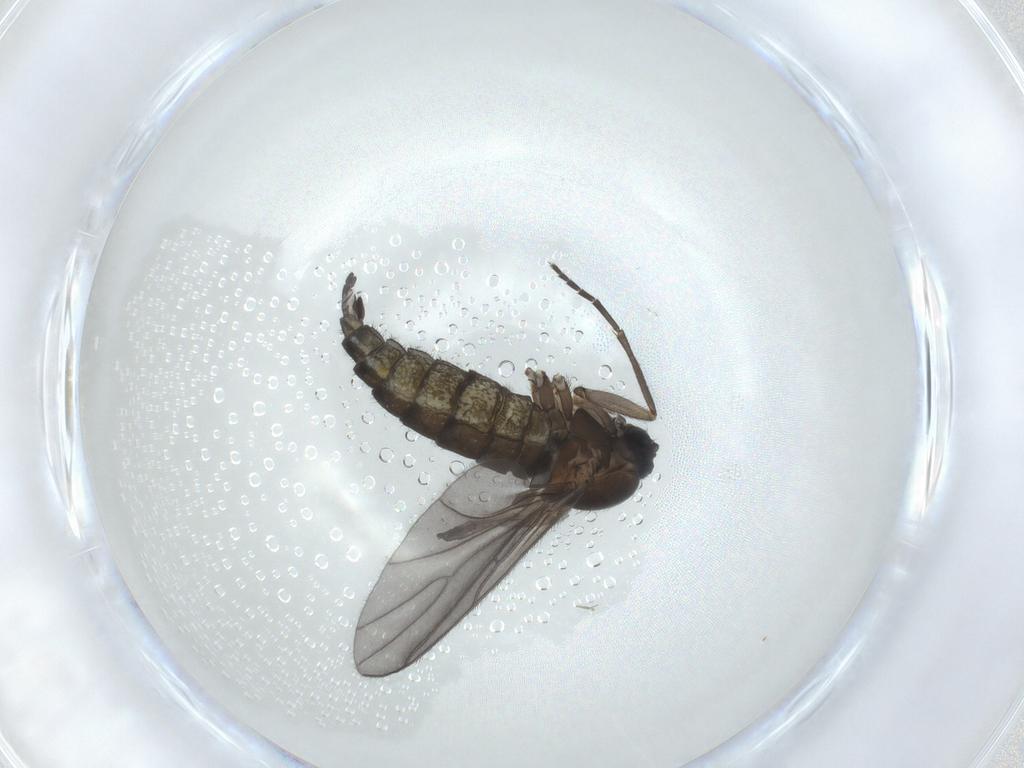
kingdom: Animalia
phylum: Arthropoda
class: Insecta
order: Diptera
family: Sciaridae
